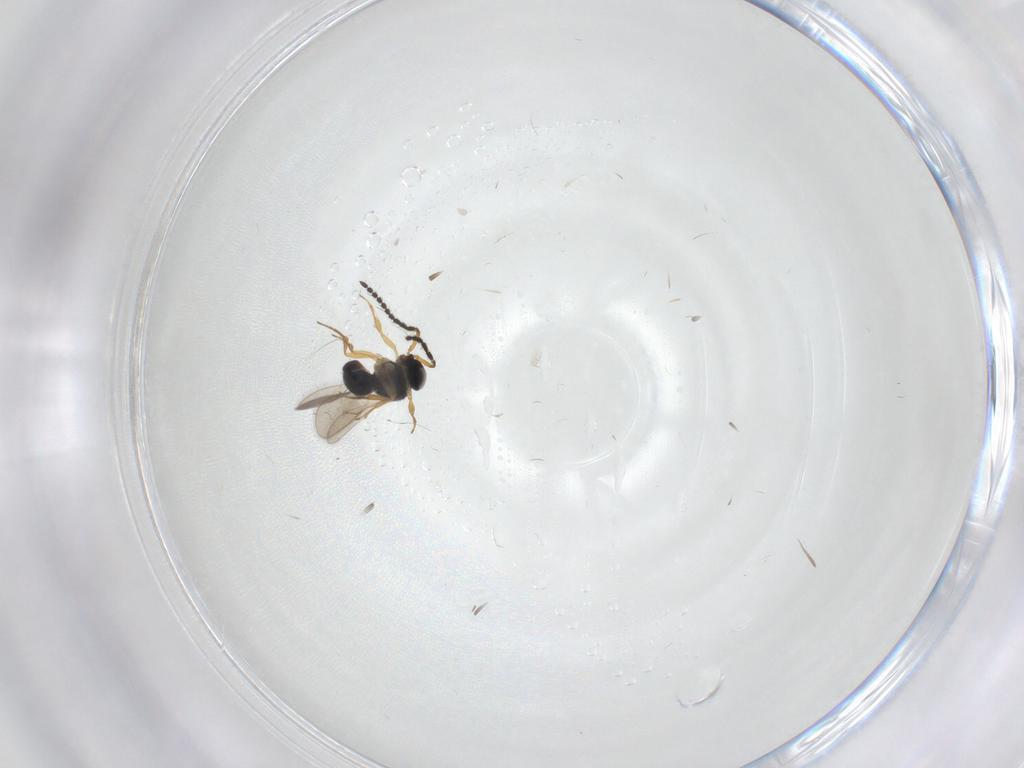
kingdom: Animalia
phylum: Arthropoda
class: Insecta
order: Hymenoptera
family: Scelionidae
